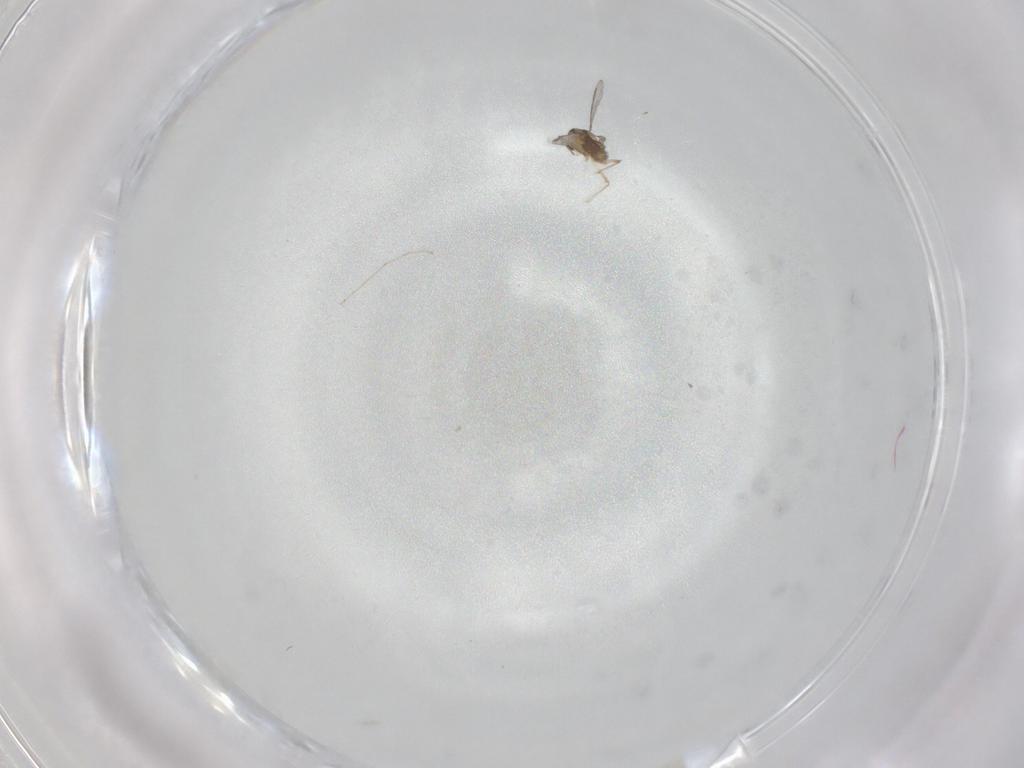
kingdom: Animalia
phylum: Arthropoda
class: Insecta
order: Diptera
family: Cecidomyiidae
